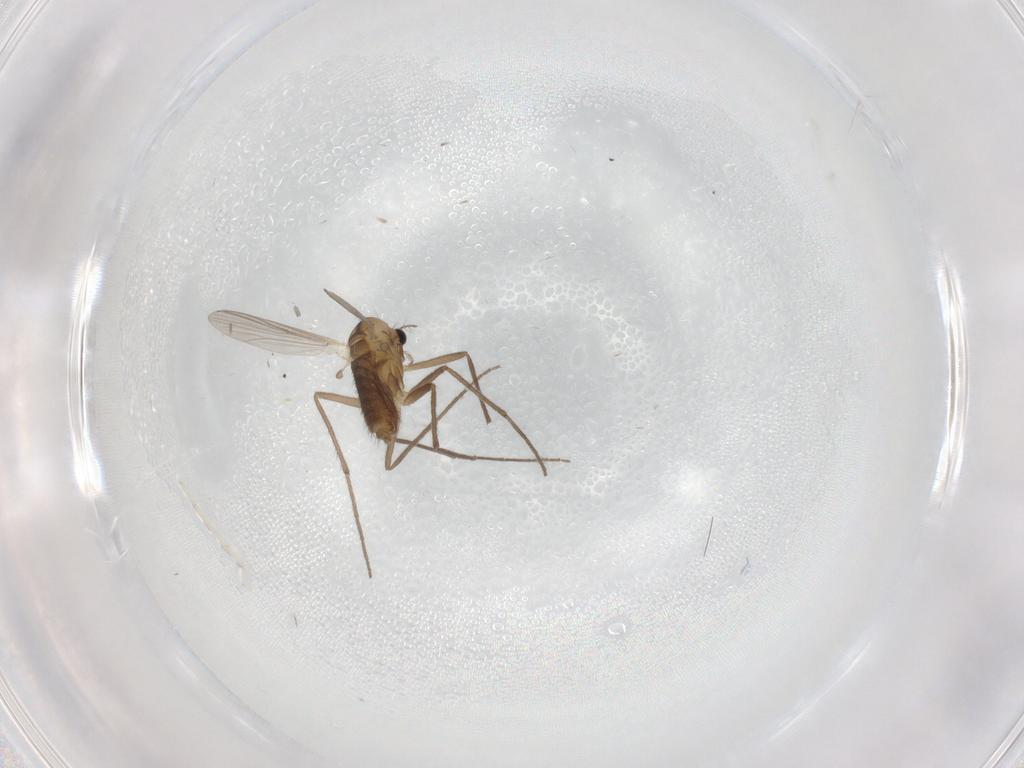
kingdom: Animalia
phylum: Arthropoda
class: Insecta
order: Diptera
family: Chironomidae
